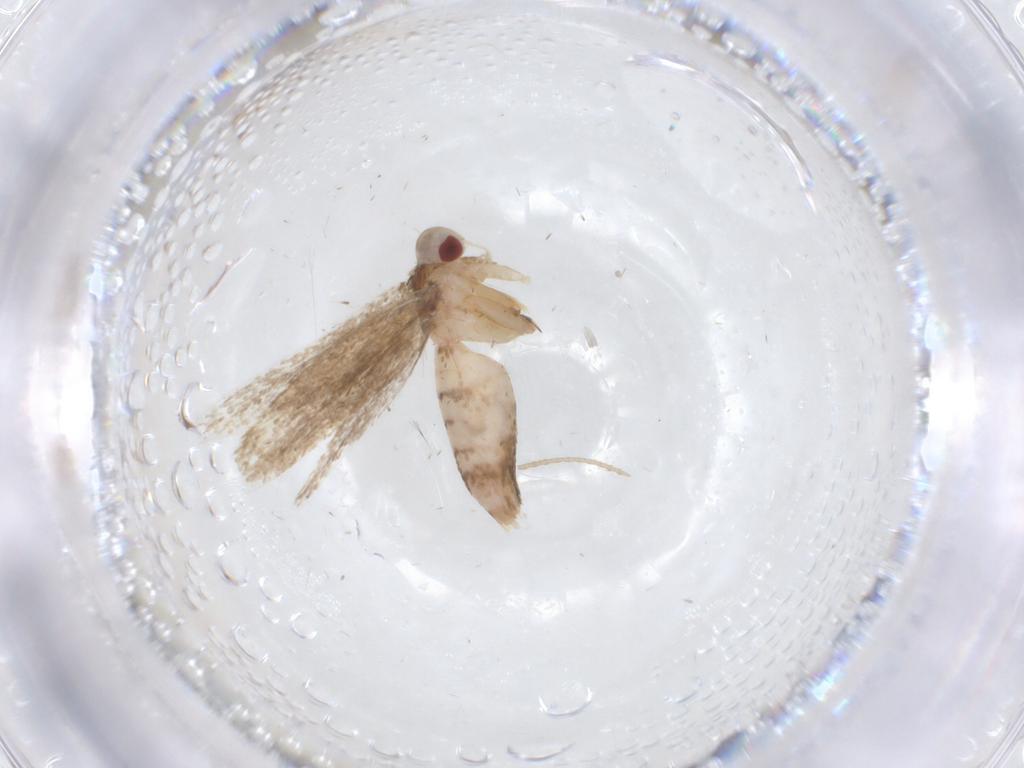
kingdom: Animalia
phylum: Arthropoda
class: Insecta
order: Lepidoptera
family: Cosmopterigidae
